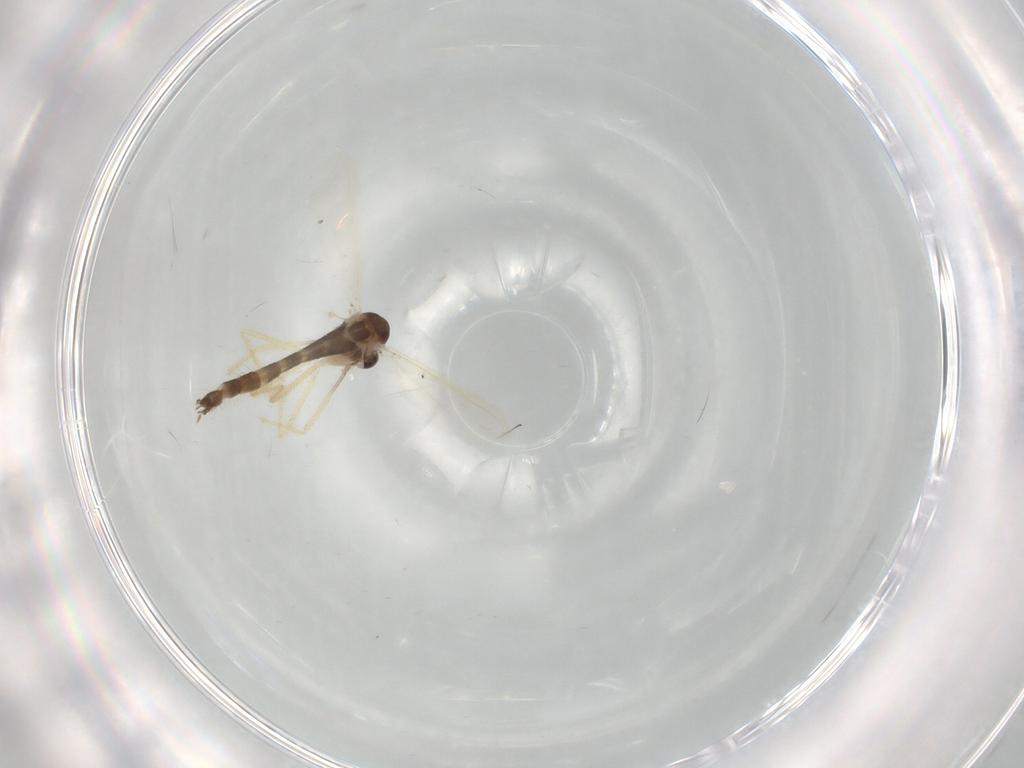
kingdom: Animalia
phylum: Arthropoda
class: Insecta
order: Diptera
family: Chironomidae
